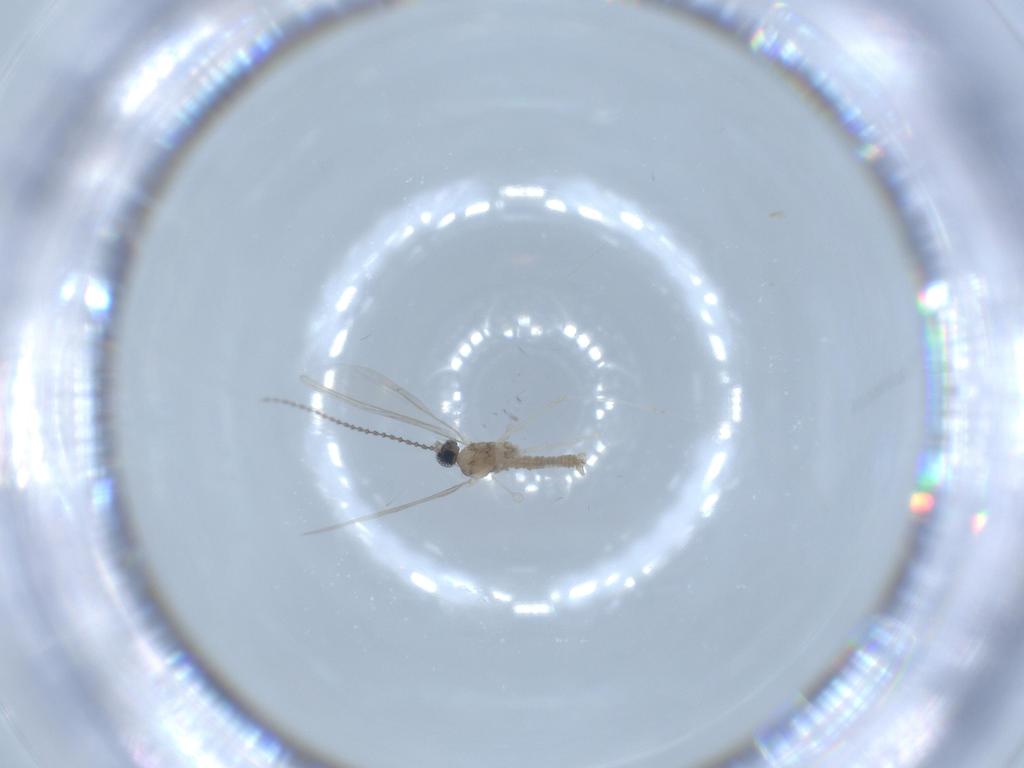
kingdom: Animalia
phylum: Arthropoda
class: Insecta
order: Diptera
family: Cecidomyiidae
